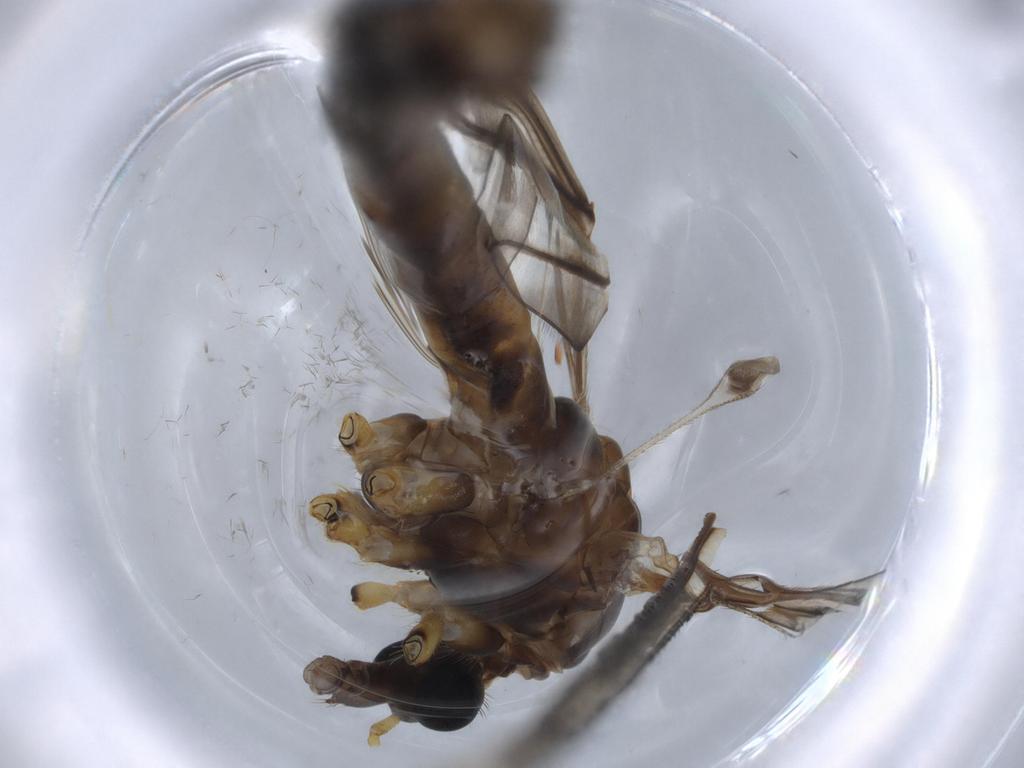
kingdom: Animalia
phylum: Arthropoda
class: Insecta
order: Diptera
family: Chironomidae
